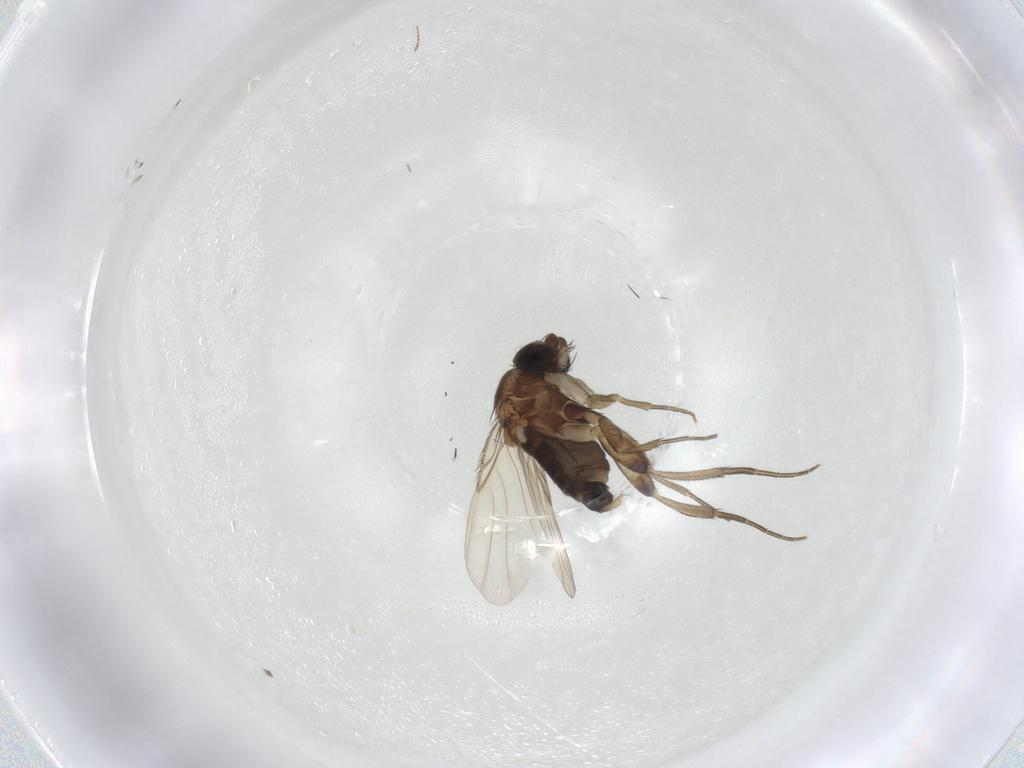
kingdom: Animalia
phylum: Arthropoda
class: Insecta
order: Diptera
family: Phoridae
